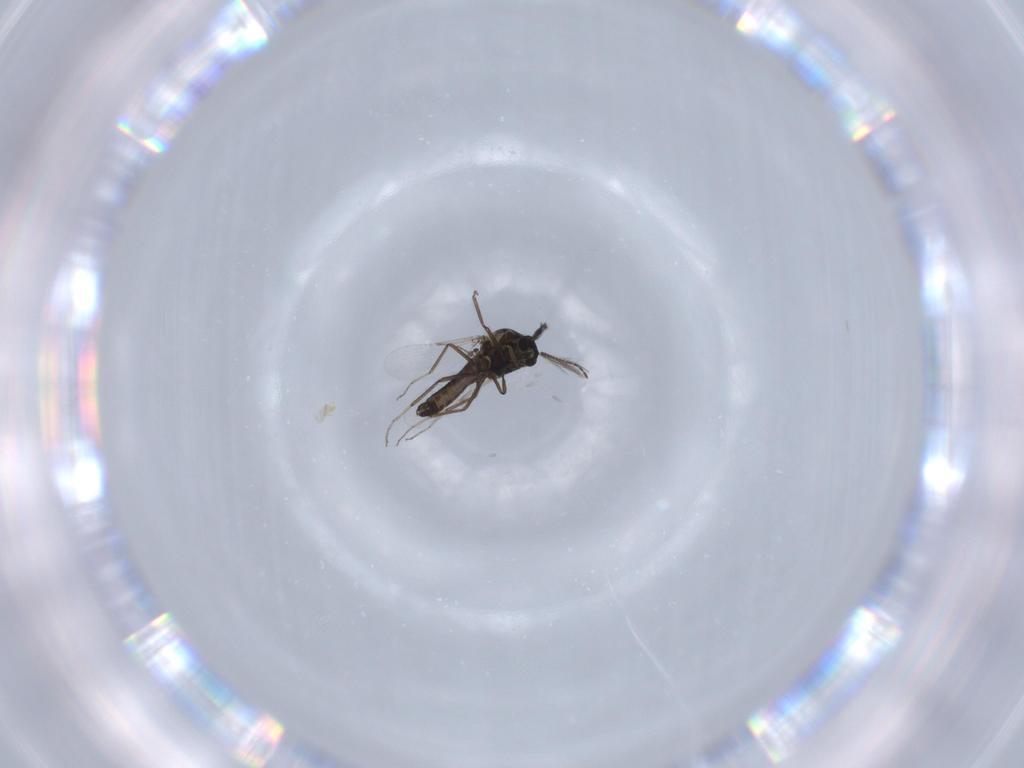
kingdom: Animalia
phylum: Arthropoda
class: Insecta
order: Diptera
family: Ceratopogonidae
